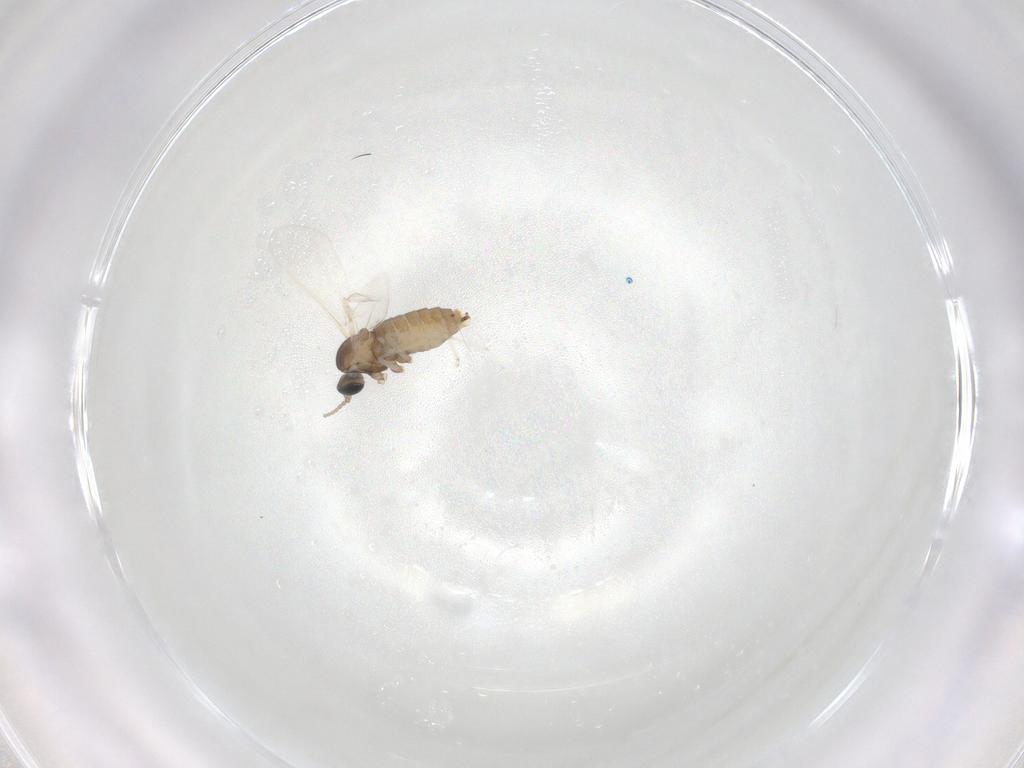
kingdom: Animalia
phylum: Arthropoda
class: Insecta
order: Diptera
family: Cecidomyiidae
